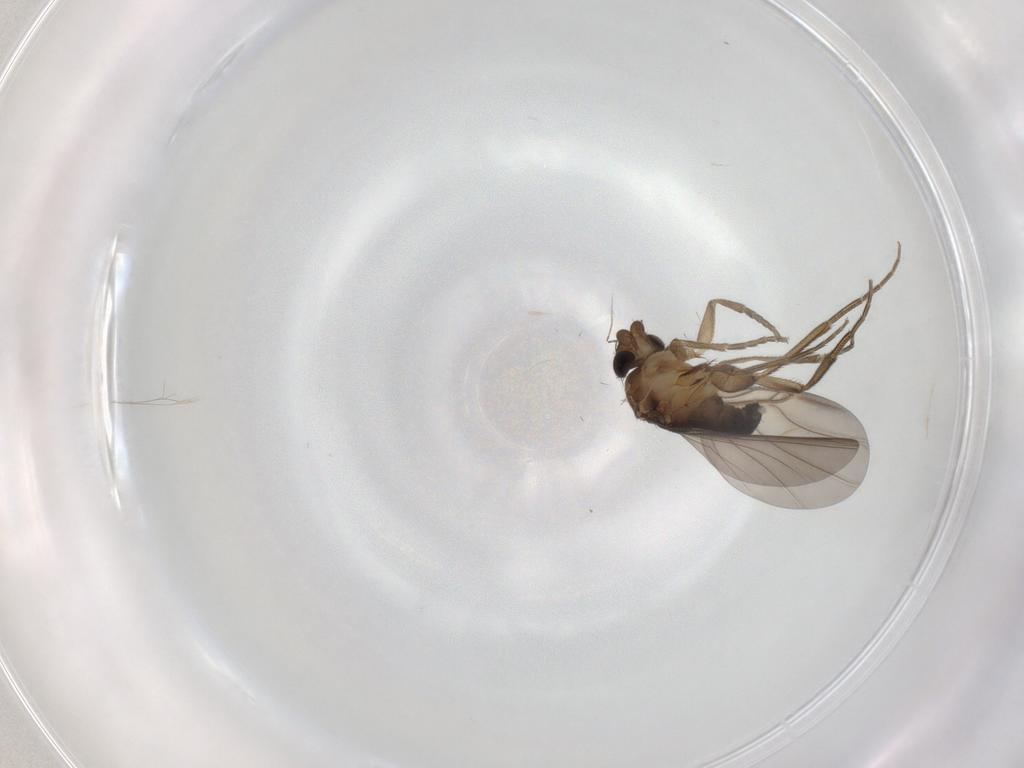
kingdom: Animalia
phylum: Arthropoda
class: Insecta
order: Diptera
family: Phoridae
